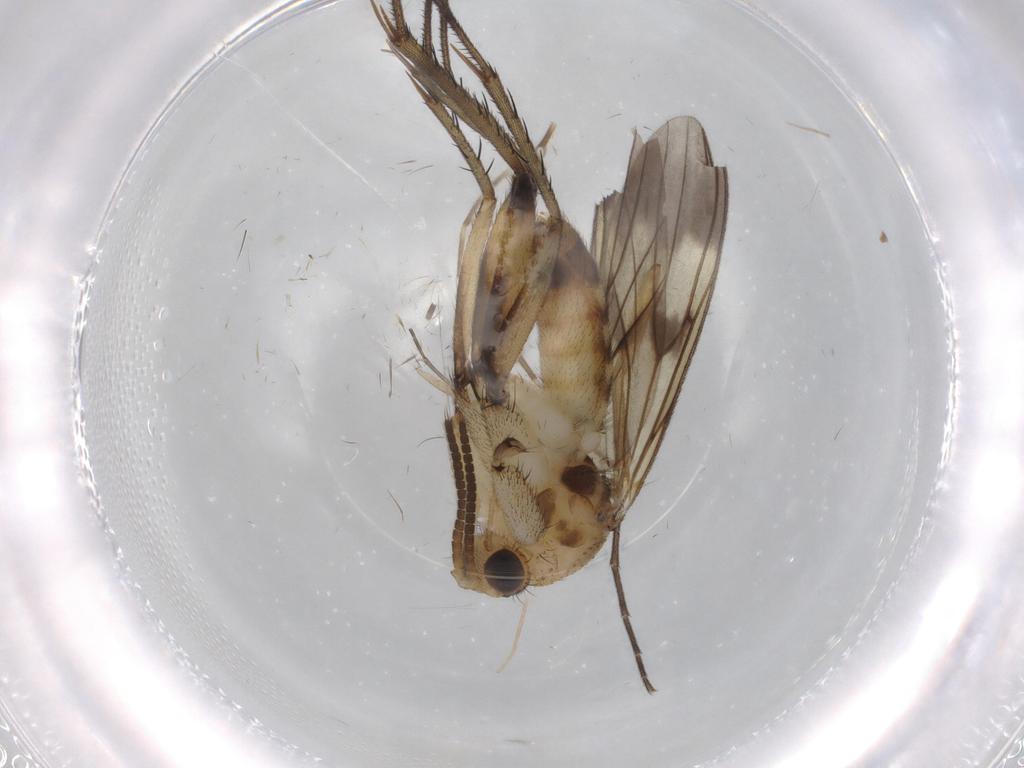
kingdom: Animalia
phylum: Arthropoda
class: Insecta
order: Diptera
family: Mycetophilidae
